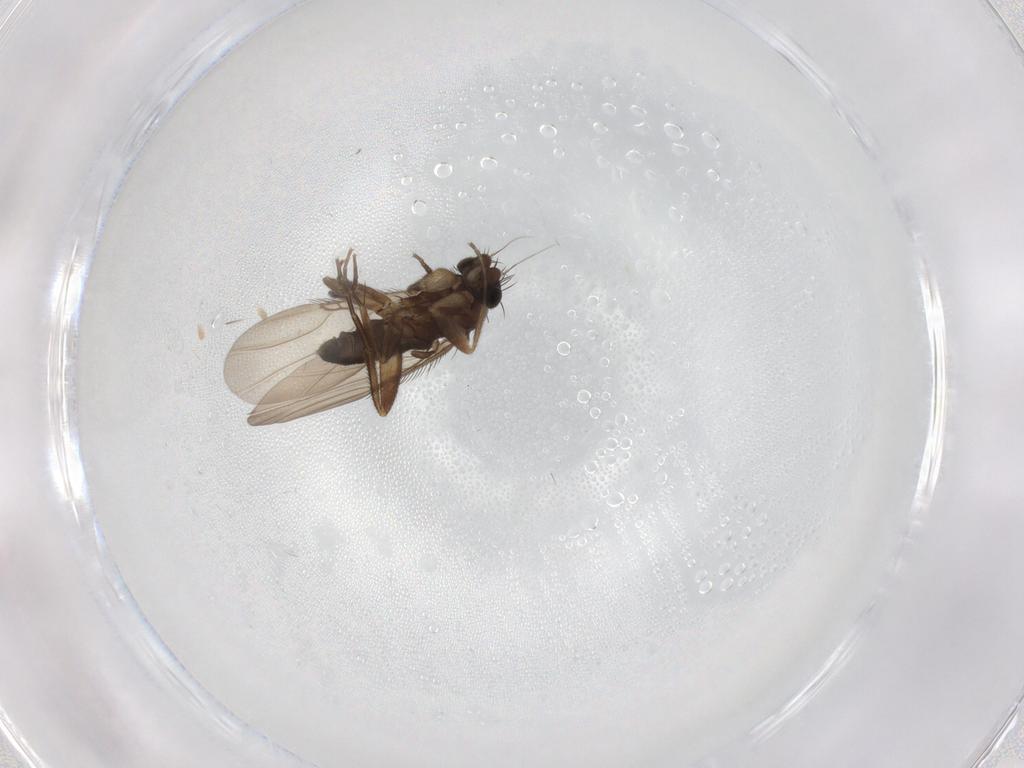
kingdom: Animalia
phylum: Arthropoda
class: Insecta
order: Diptera
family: Phoridae
